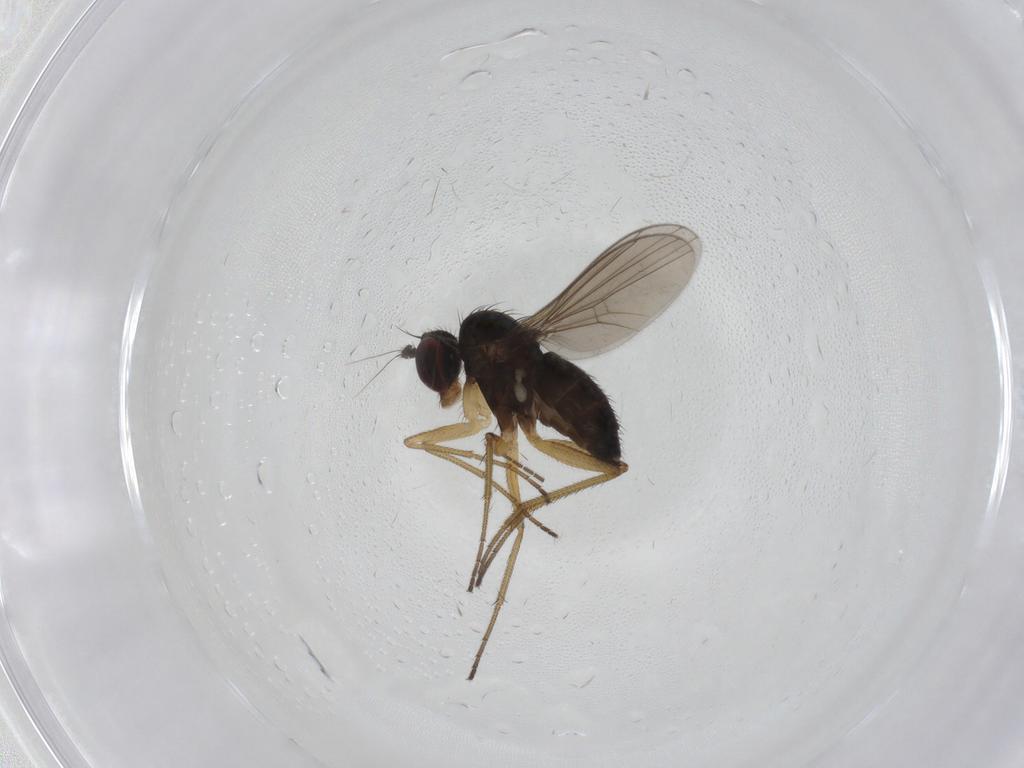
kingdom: Animalia
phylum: Arthropoda
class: Insecta
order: Diptera
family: Dolichopodidae
